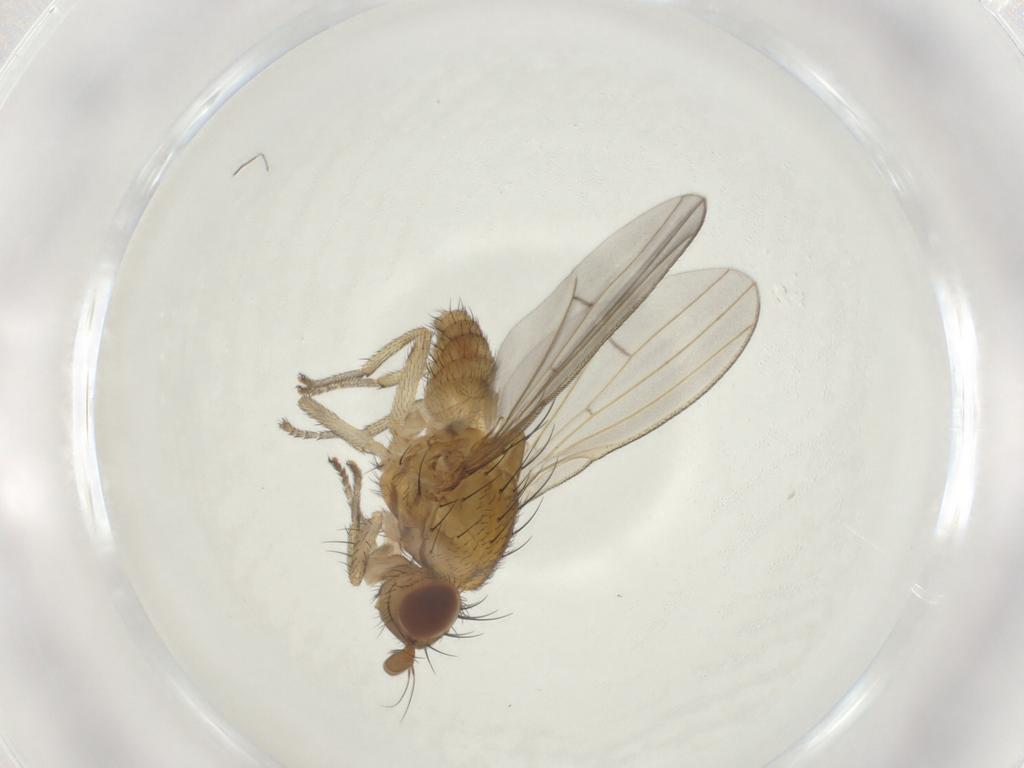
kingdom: Animalia
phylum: Arthropoda
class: Insecta
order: Diptera
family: Lauxaniidae
